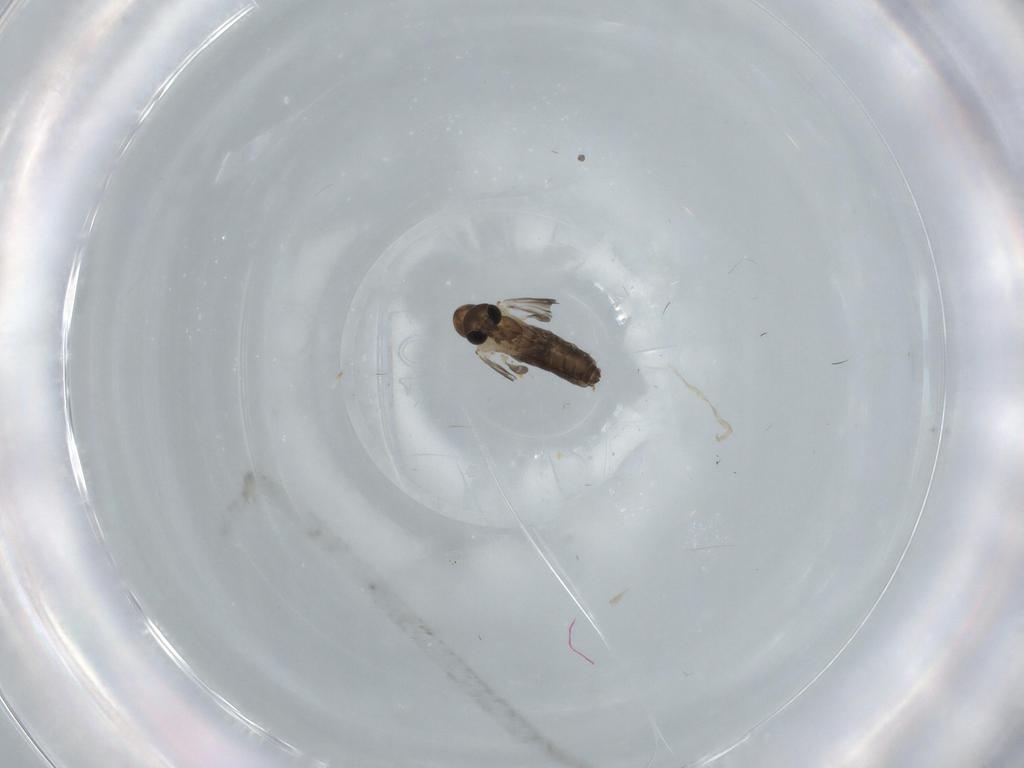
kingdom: Animalia
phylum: Arthropoda
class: Insecta
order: Diptera
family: Psychodidae
